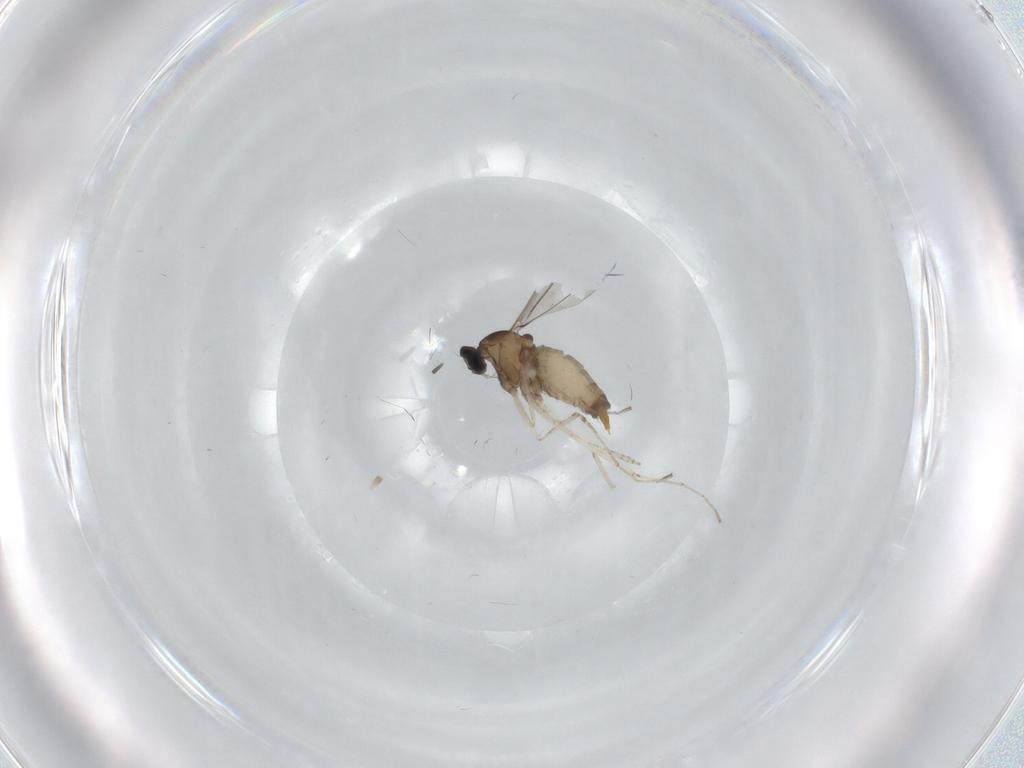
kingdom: Animalia
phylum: Arthropoda
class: Insecta
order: Diptera
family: Cecidomyiidae
